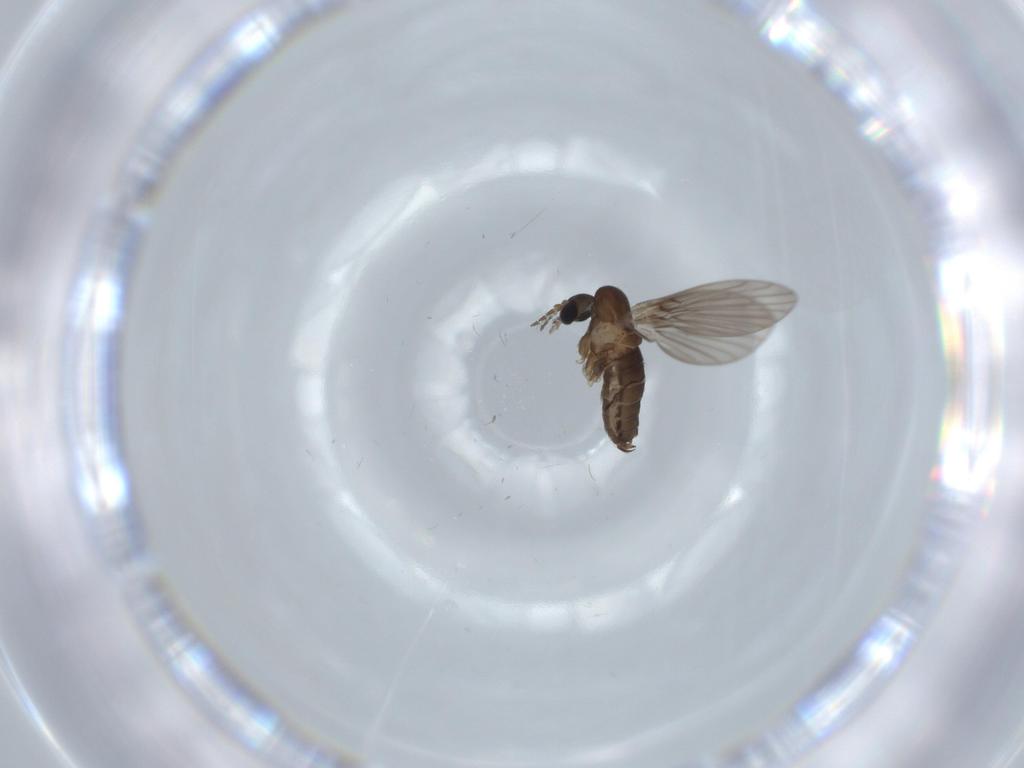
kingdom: Animalia
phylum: Arthropoda
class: Insecta
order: Diptera
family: Psychodidae
